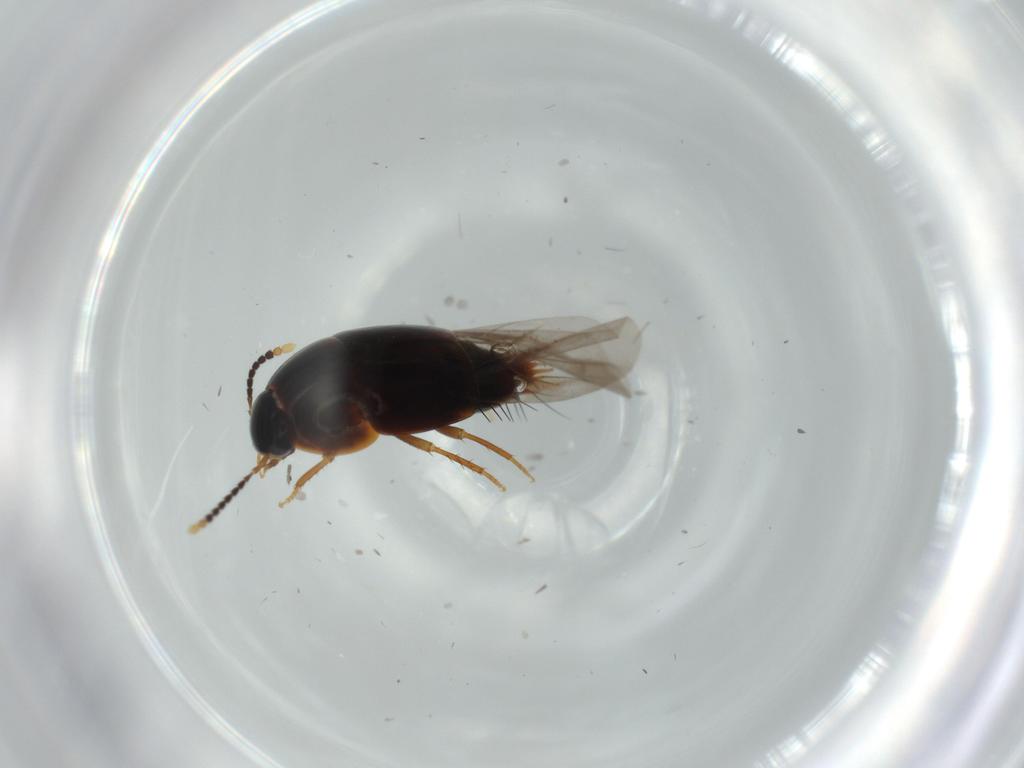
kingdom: Animalia
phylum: Arthropoda
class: Insecta
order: Coleoptera
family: Staphylinidae
